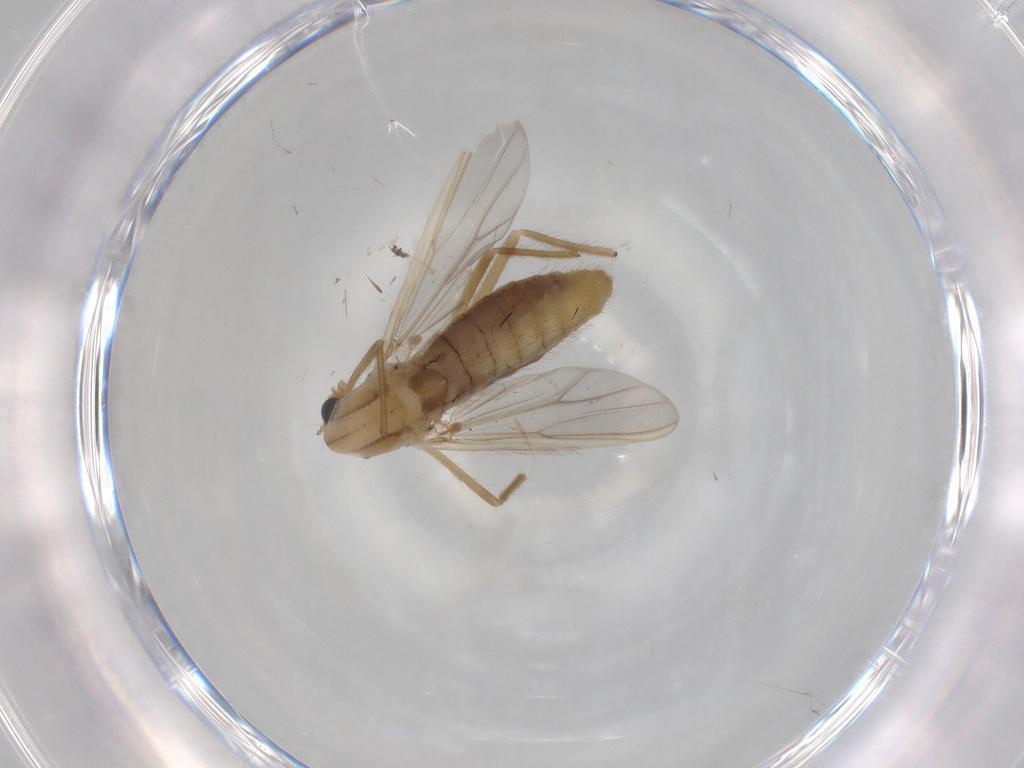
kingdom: Animalia
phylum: Arthropoda
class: Insecta
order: Diptera
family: Chironomidae
